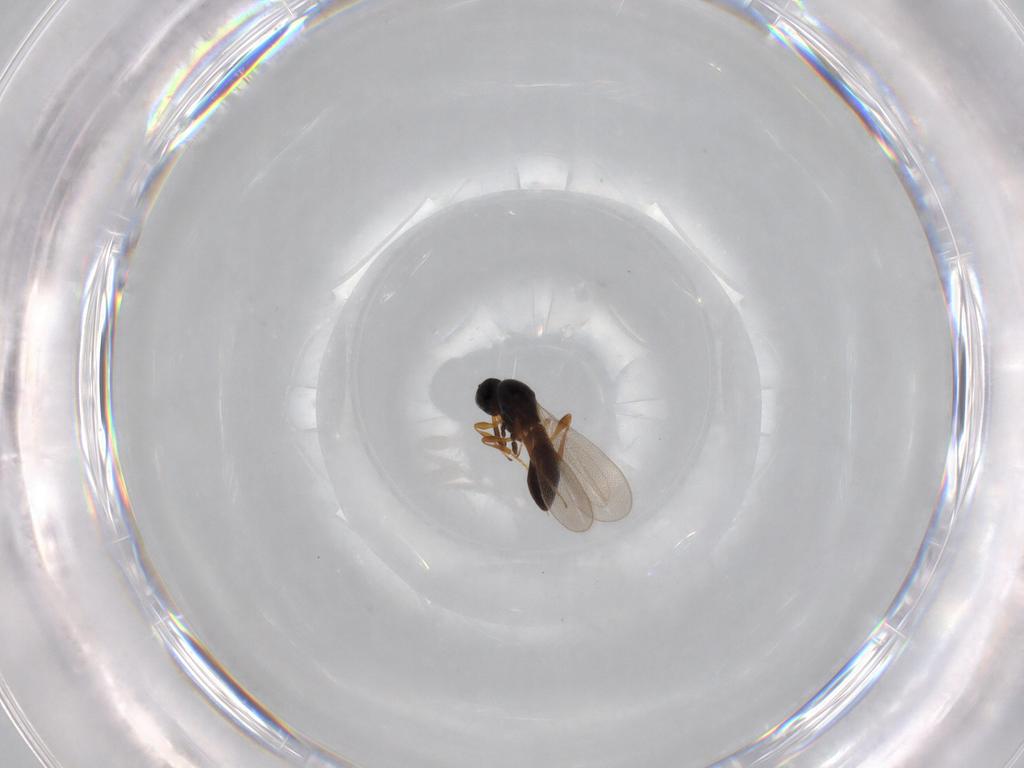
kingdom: Animalia
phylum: Arthropoda
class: Insecta
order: Hymenoptera
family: Platygastridae
